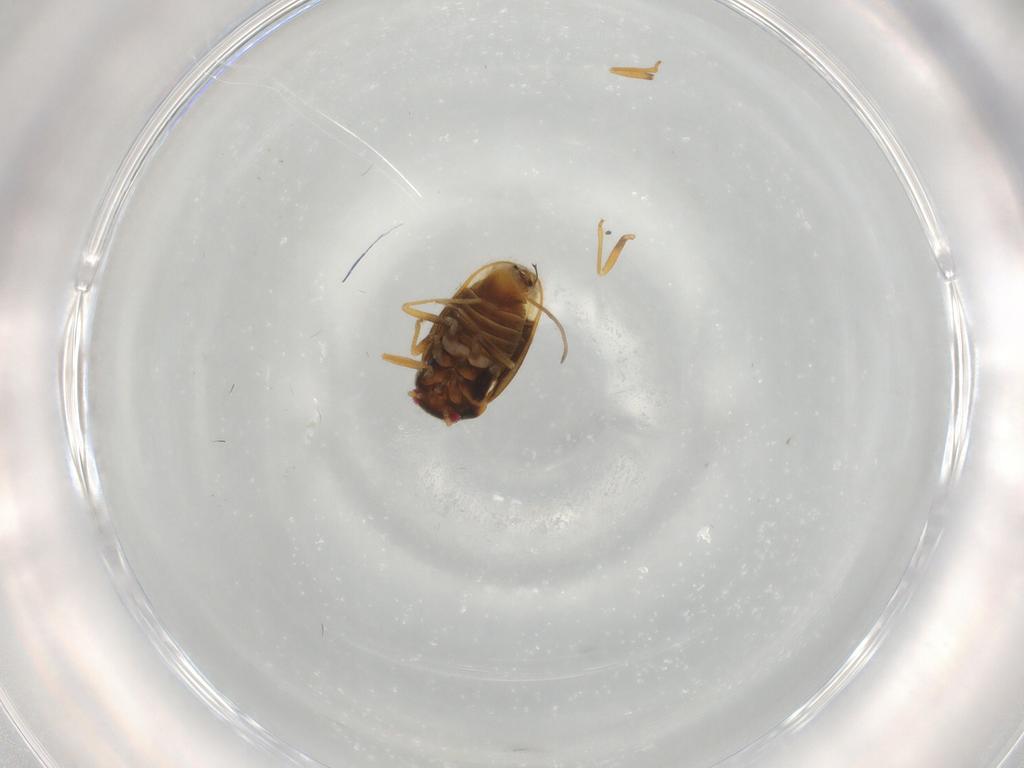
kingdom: Animalia
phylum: Arthropoda
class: Insecta
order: Hemiptera
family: Schizopteridae
